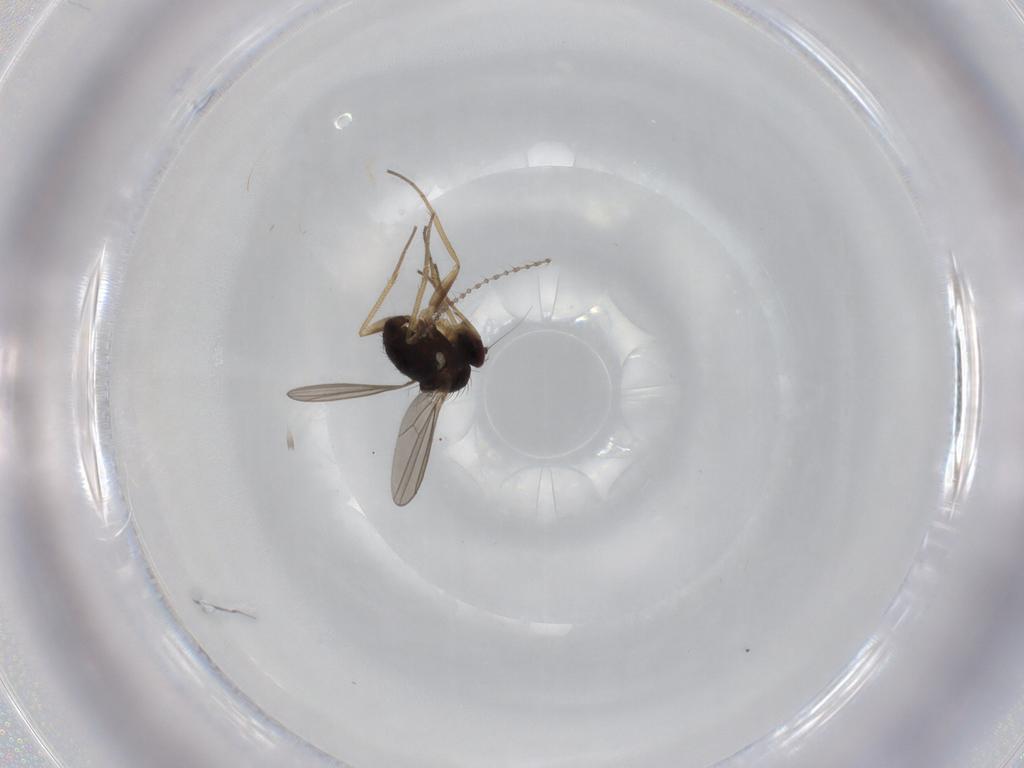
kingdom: Animalia
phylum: Arthropoda
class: Insecta
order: Diptera
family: Dolichopodidae
